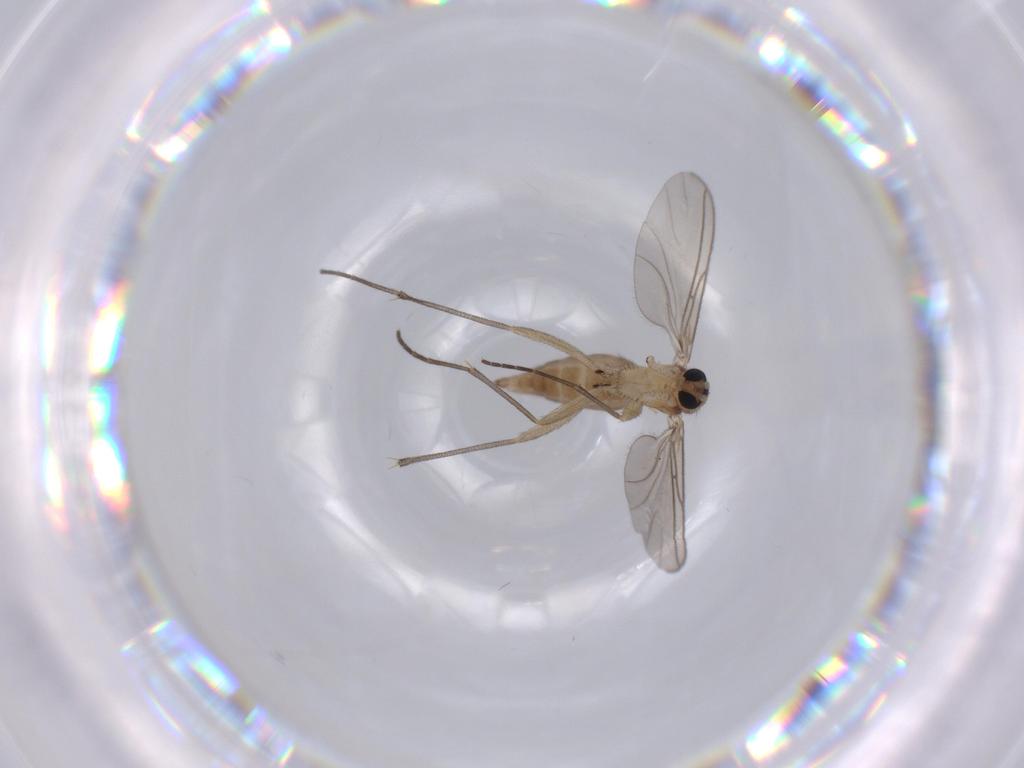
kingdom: Animalia
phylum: Arthropoda
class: Insecta
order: Diptera
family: Sciaridae
